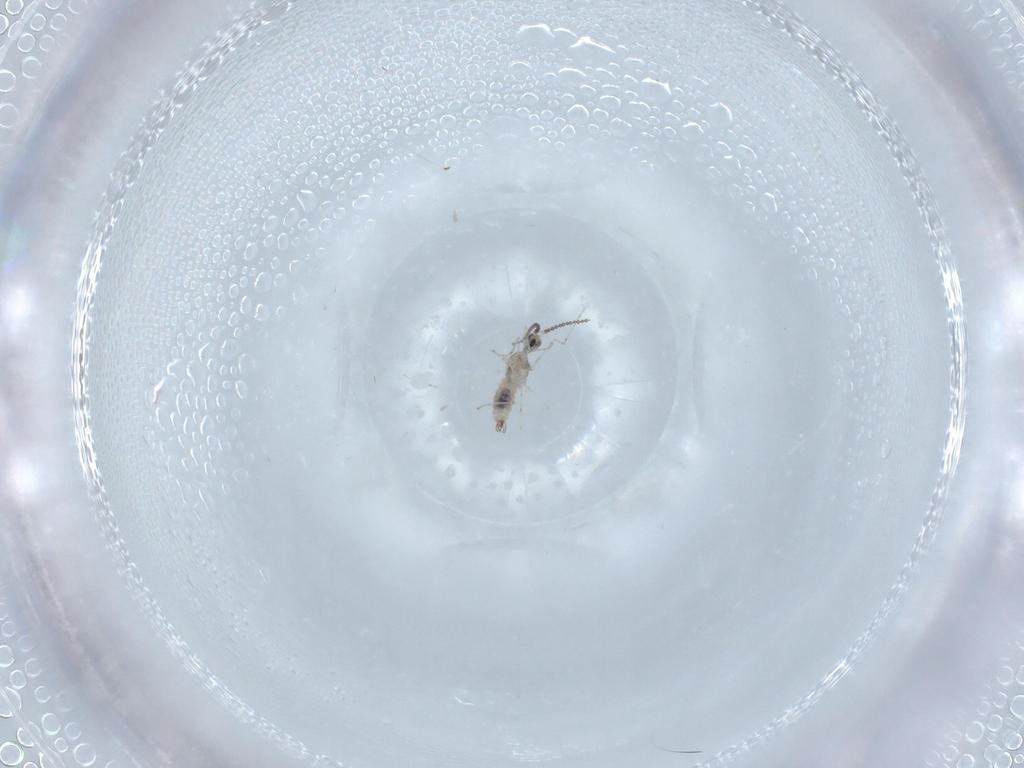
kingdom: Animalia
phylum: Arthropoda
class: Insecta
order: Diptera
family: Cecidomyiidae
